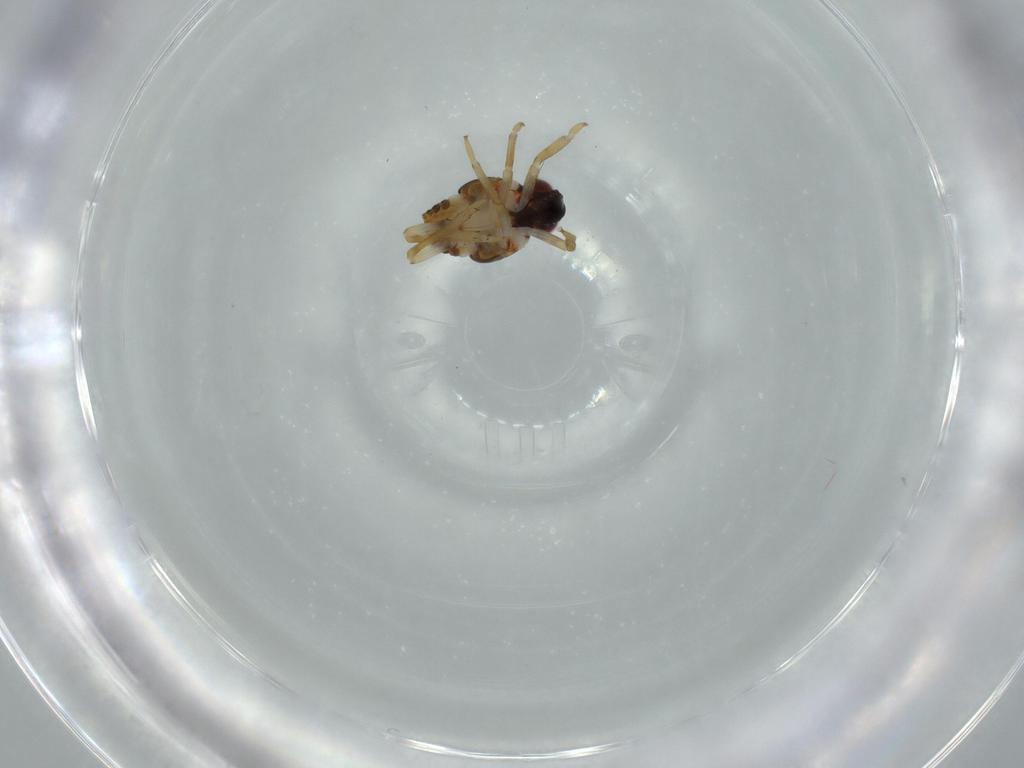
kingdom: Animalia
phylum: Arthropoda
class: Insecta
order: Hemiptera
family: Issidae
